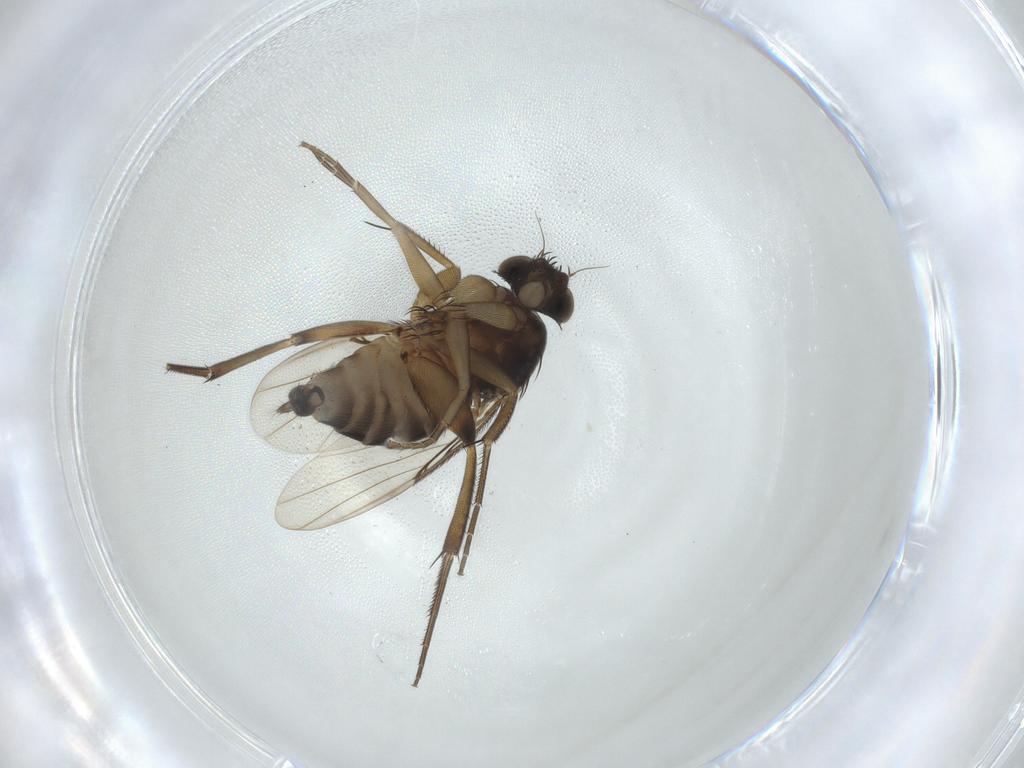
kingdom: Animalia
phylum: Arthropoda
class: Insecta
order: Diptera
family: Phoridae
